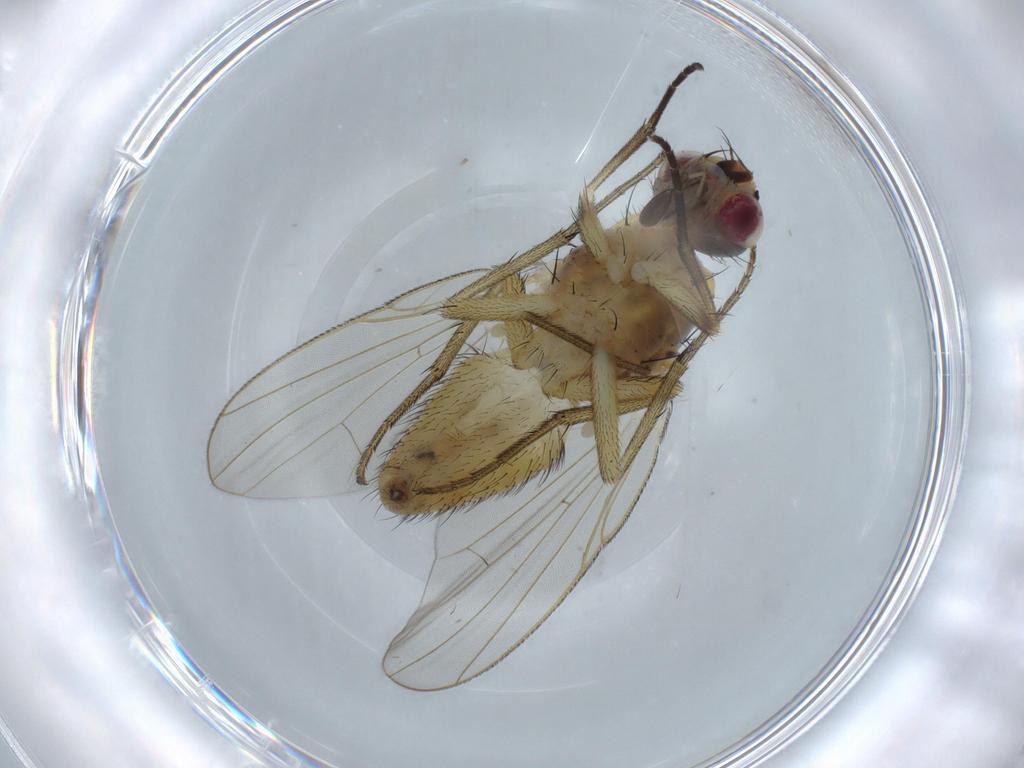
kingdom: Animalia
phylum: Arthropoda
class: Insecta
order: Diptera
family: Muscidae
